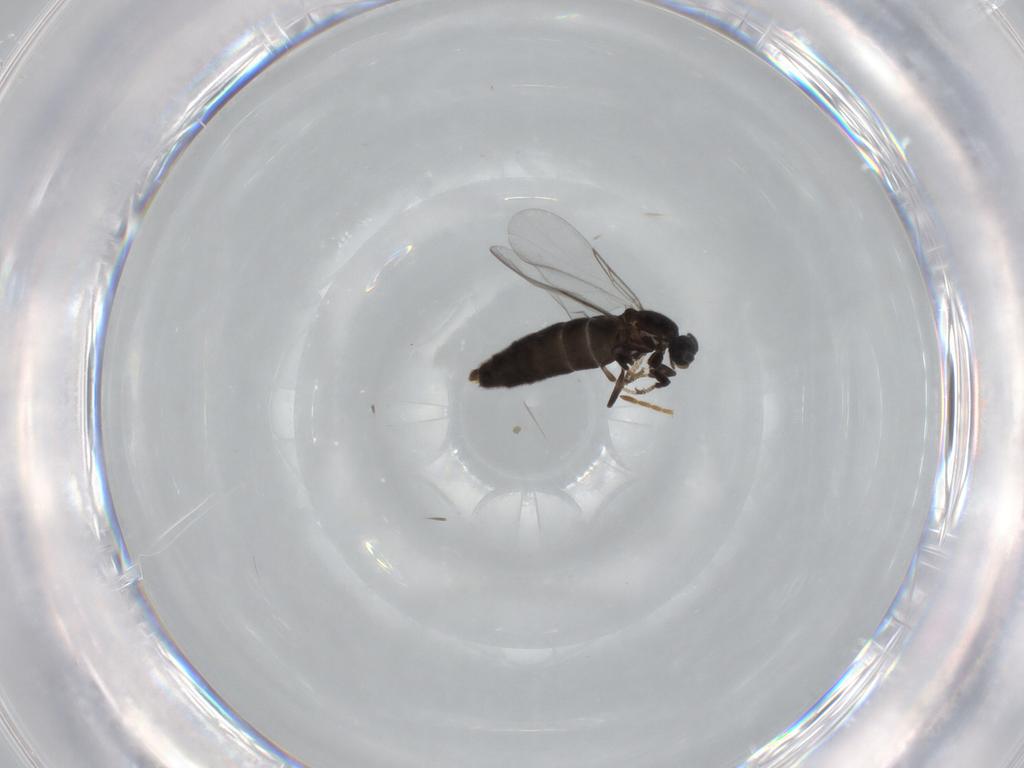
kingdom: Animalia
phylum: Arthropoda
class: Insecta
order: Diptera
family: Scatopsidae
